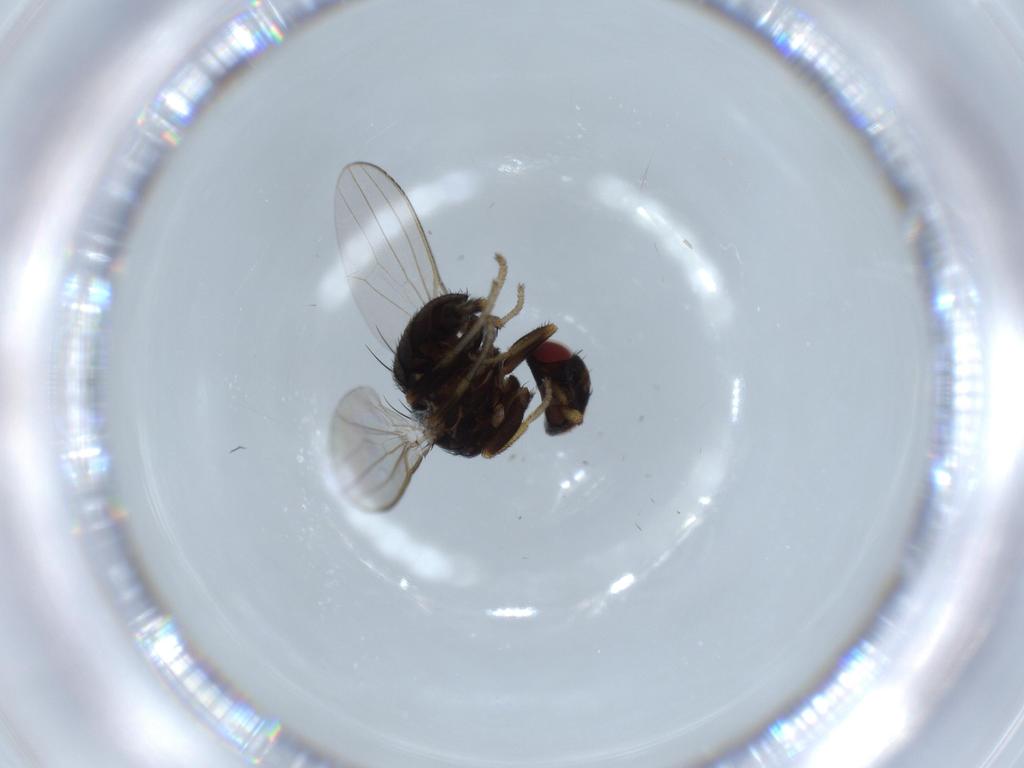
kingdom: Animalia
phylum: Arthropoda
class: Insecta
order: Diptera
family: Milichiidae
